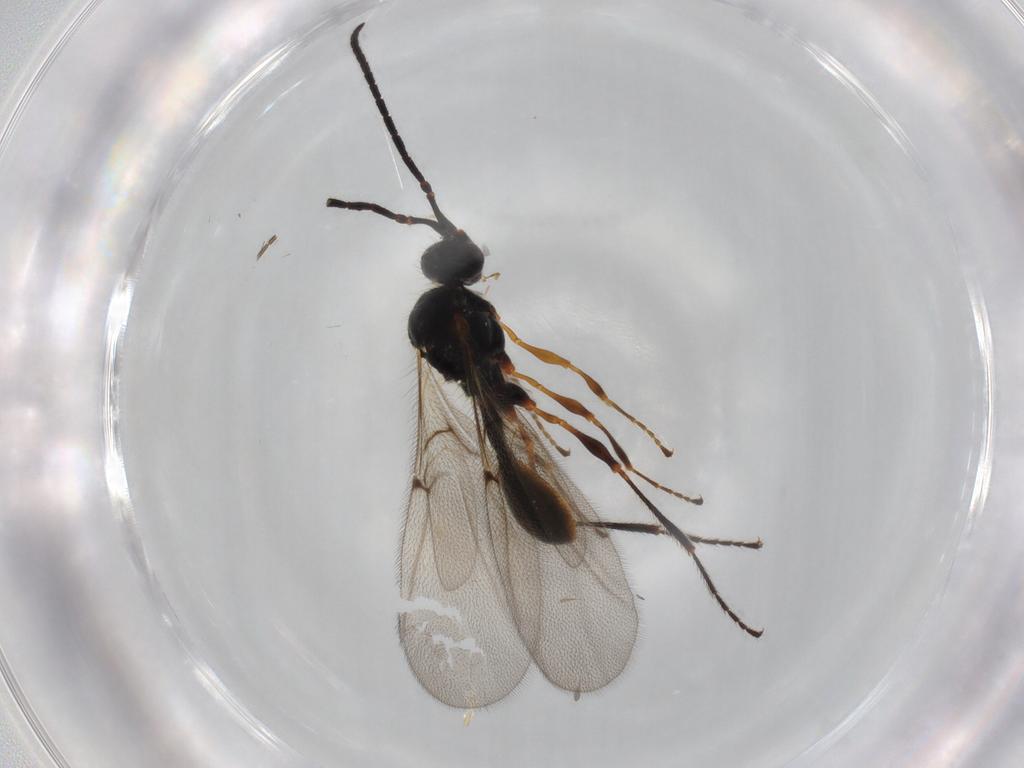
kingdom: Animalia
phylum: Arthropoda
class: Insecta
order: Hymenoptera
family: Diapriidae
